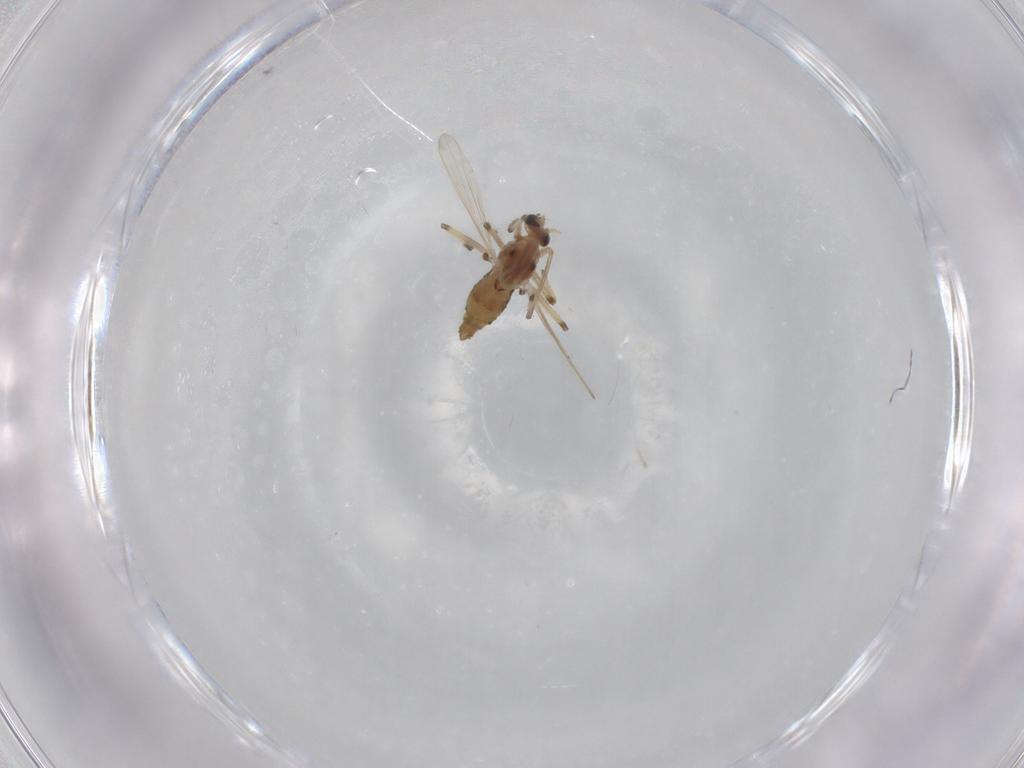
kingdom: Animalia
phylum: Arthropoda
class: Insecta
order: Diptera
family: Chironomidae
